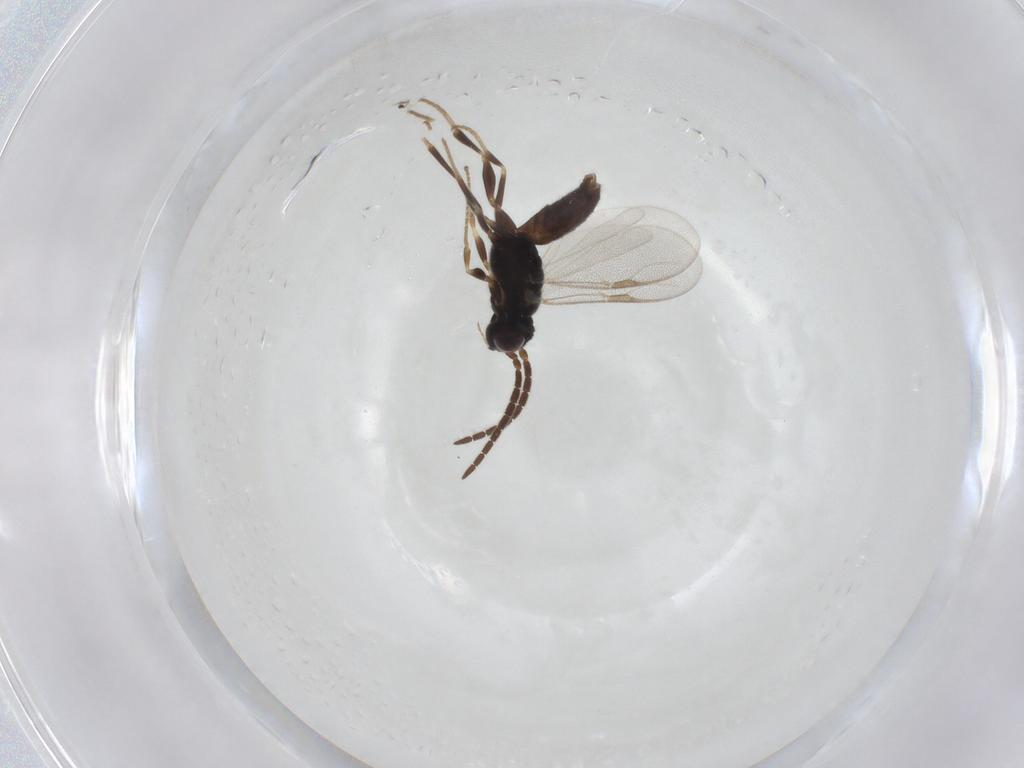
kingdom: Animalia
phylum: Arthropoda
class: Insecta
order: Hymenoptera
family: Dryinidae
